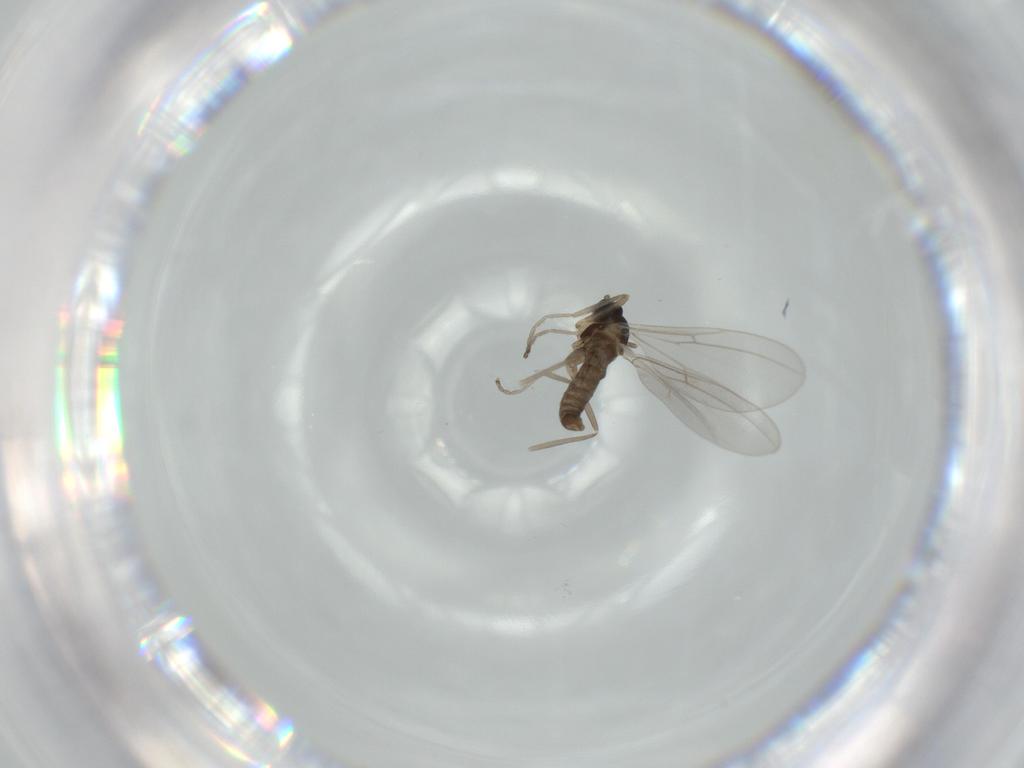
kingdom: Animalia
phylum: Arthropoda
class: Insecta
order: Diptera
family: Cecidomyiidae
